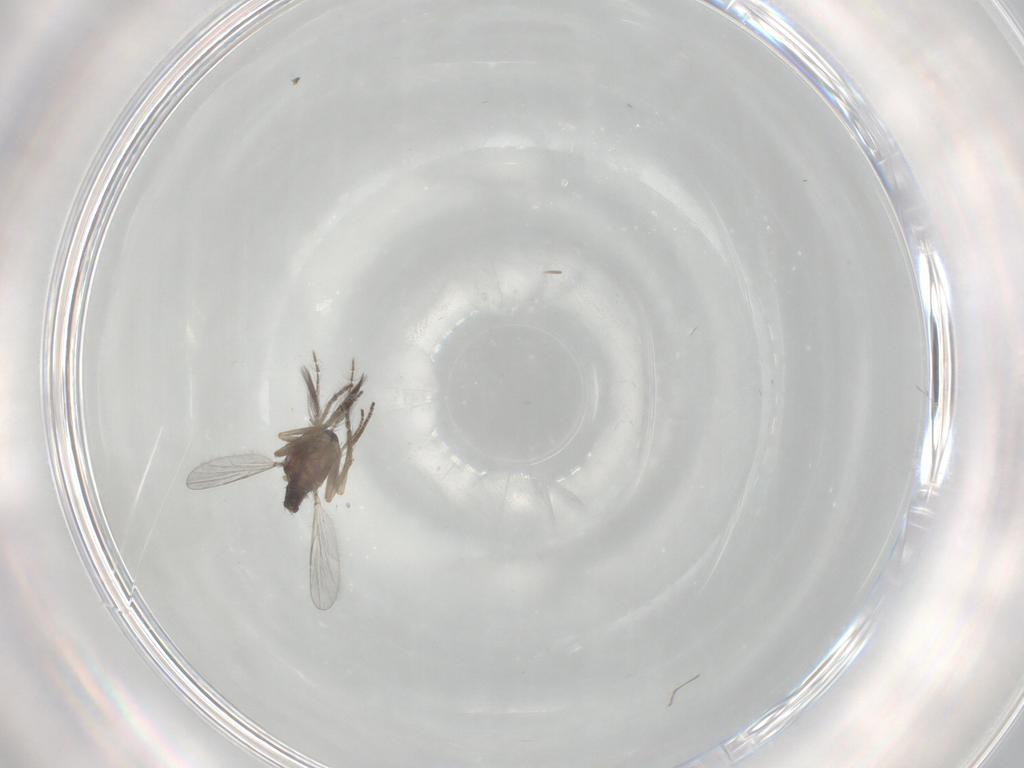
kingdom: Animalia
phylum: Arthropoda
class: Insecta
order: Diptera
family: Ceratopogonidae
